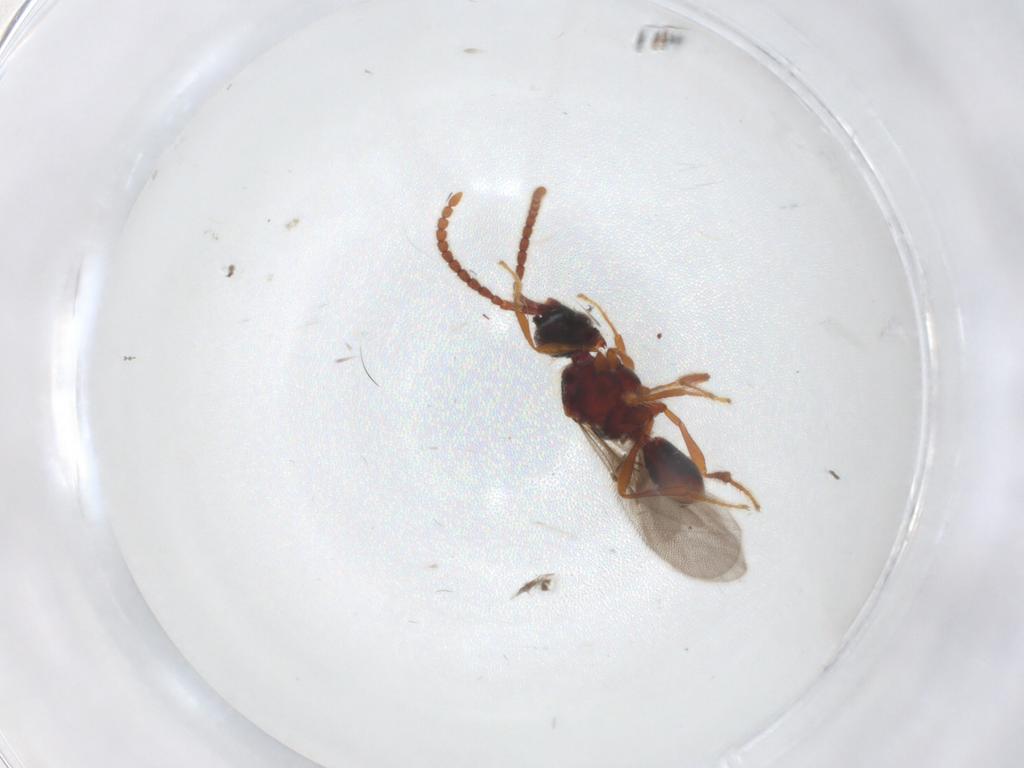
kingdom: Animalia
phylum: Arthropoda
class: Insecta
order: Hymenoptera
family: Diapriidae
